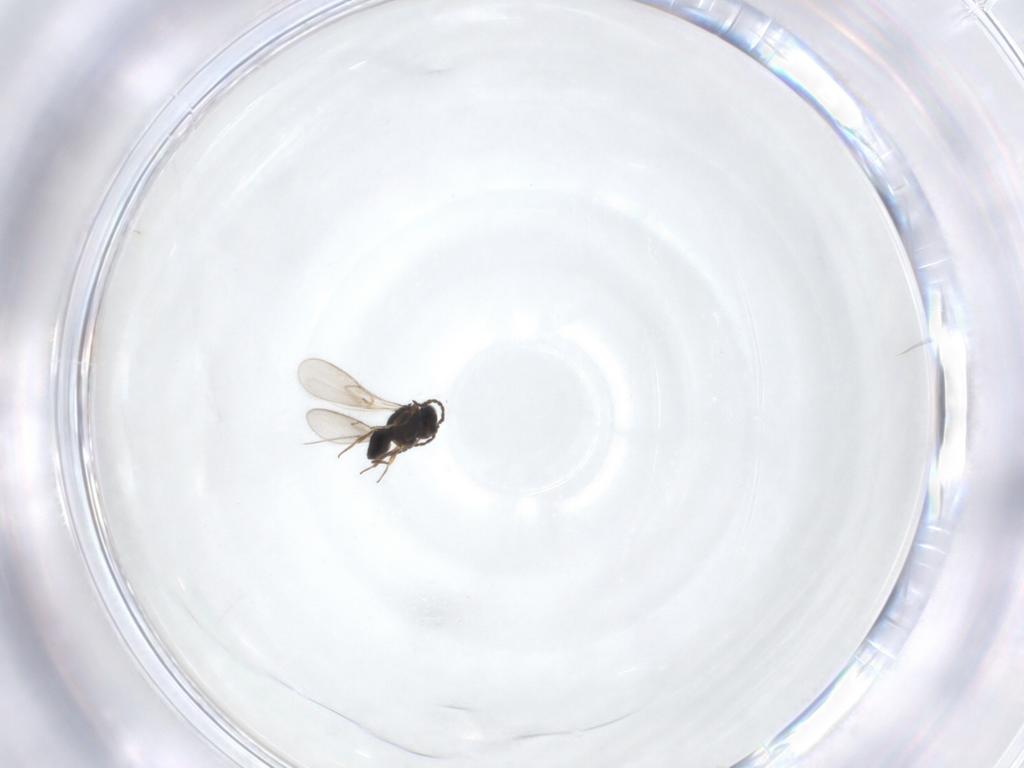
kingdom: Animalia
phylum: Arthropoda
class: Insecta
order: Hymenoptera
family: Scelionidae
